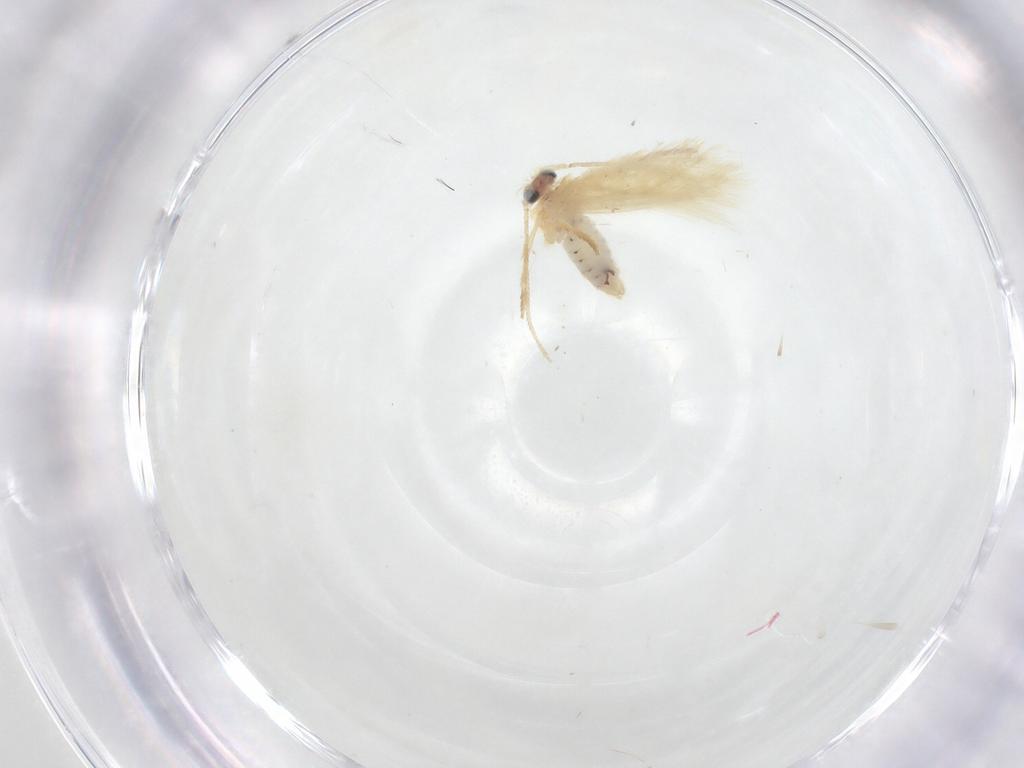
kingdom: Animalia
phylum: Arthropoda
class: Insecta
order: Lepidoptera
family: Nepticulidae
